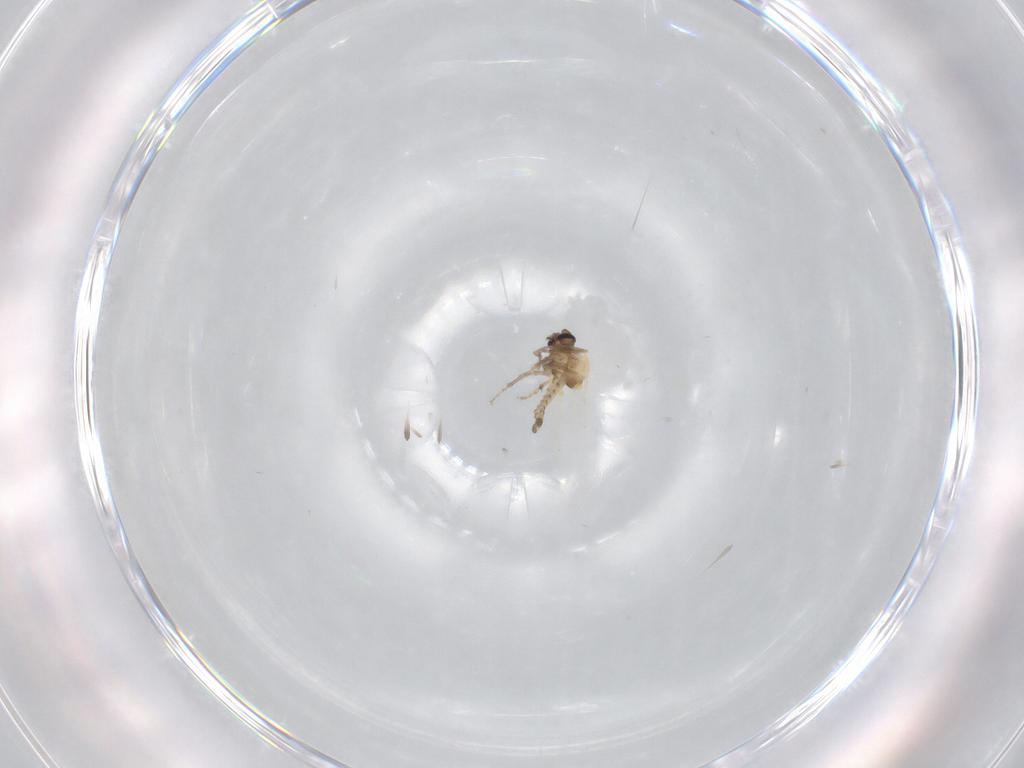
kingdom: Animalia
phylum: Arthropoda
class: Insecta
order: Diptera
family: Ceratopogonidae
